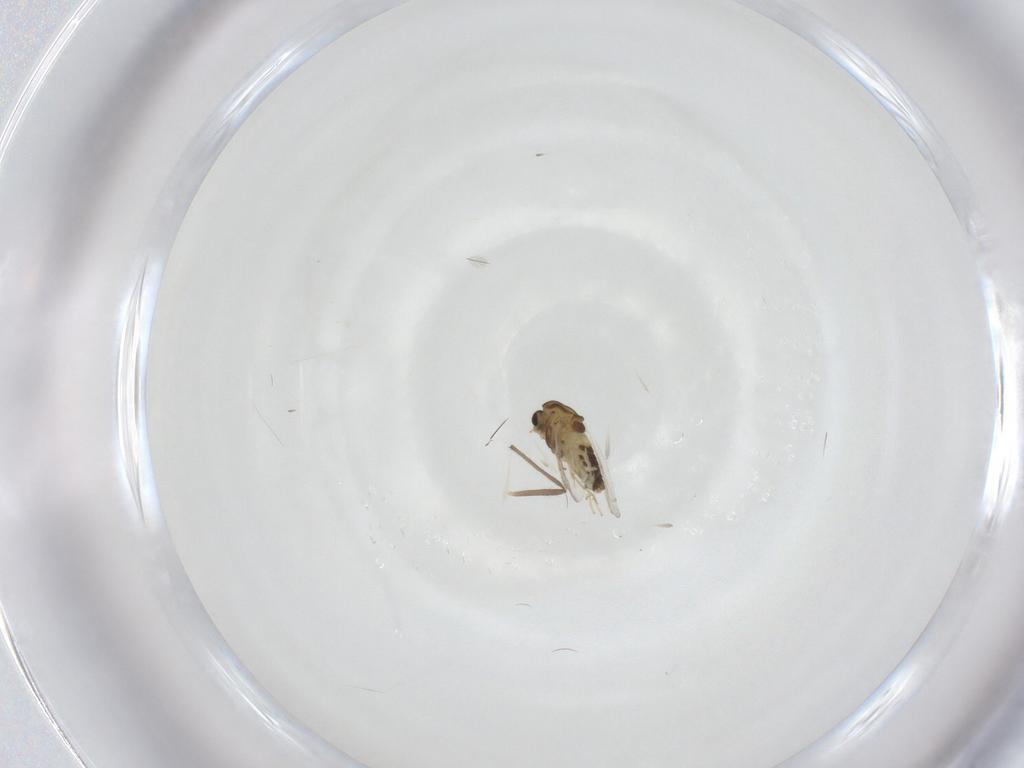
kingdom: Animalia
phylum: Arthropoda
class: Insecta
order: Diptera
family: Chironomidae
